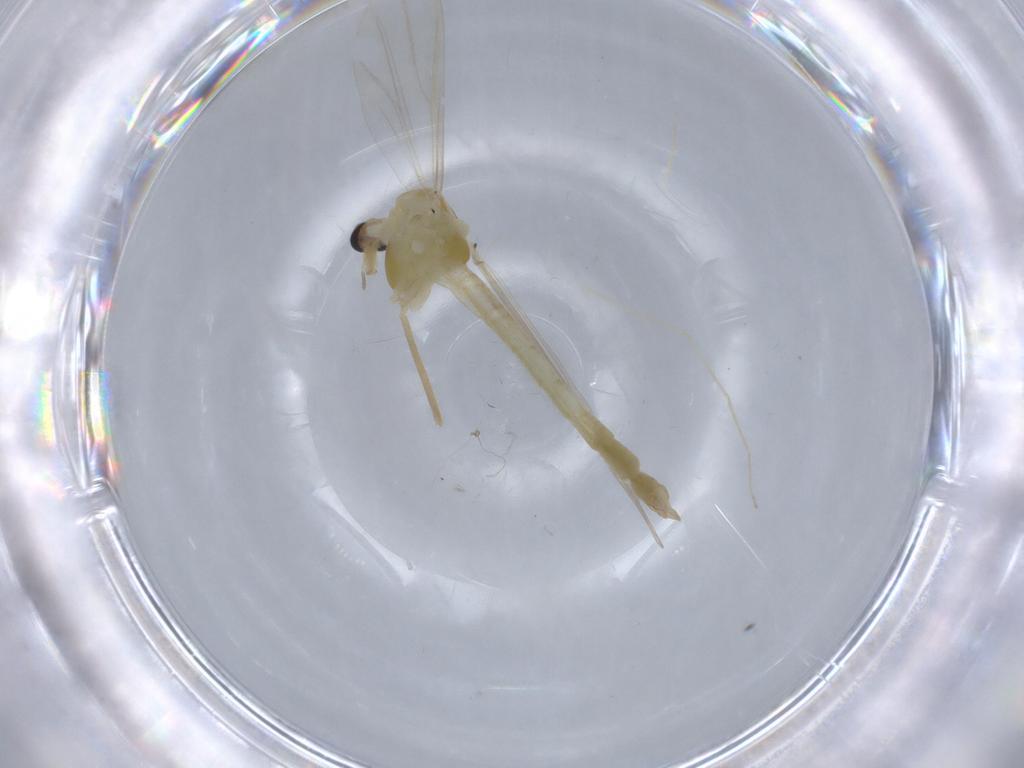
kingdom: Animalia
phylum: Arthropoda
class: Insecta
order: Diptera
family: Chironomidae
